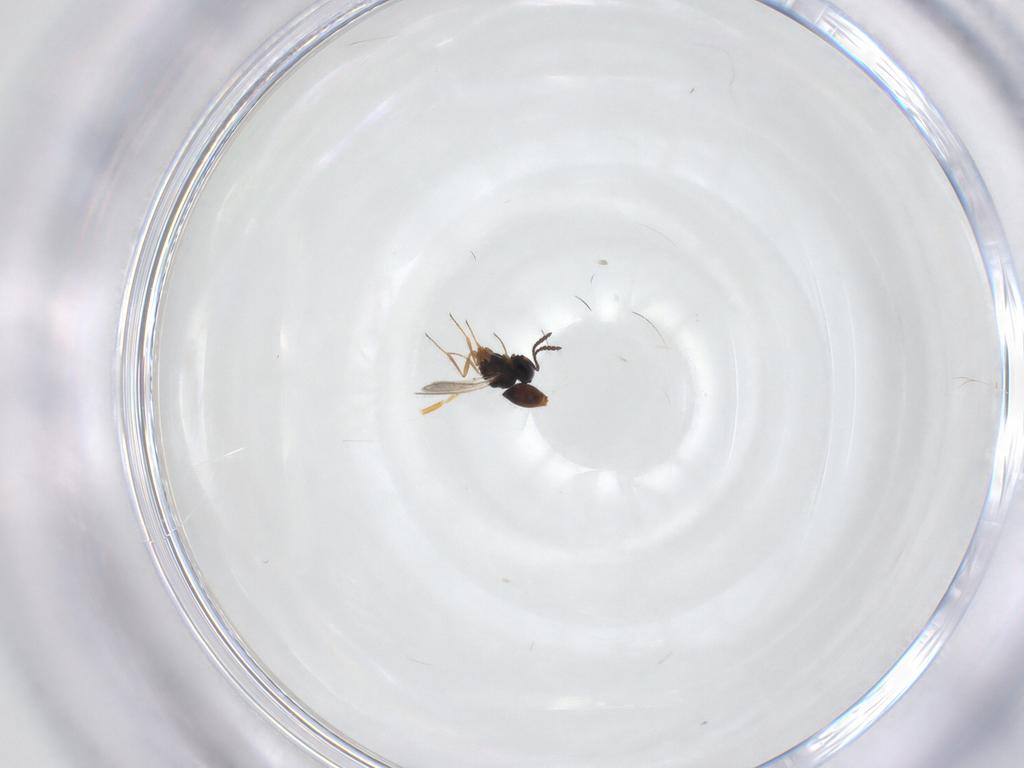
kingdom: Animalia
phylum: Arthropoda
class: Insecta
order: Hymenoptera
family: Scelionidae
